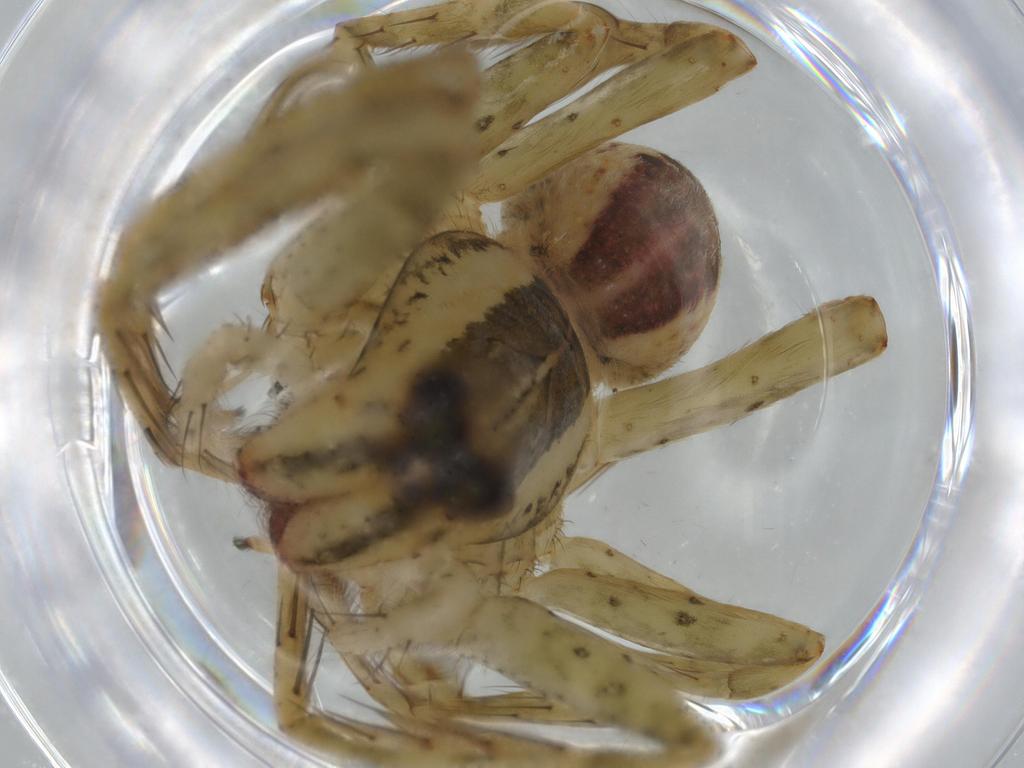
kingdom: Animalia
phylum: Arthropoda
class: Arachnida
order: Araneae
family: Ctenidae
